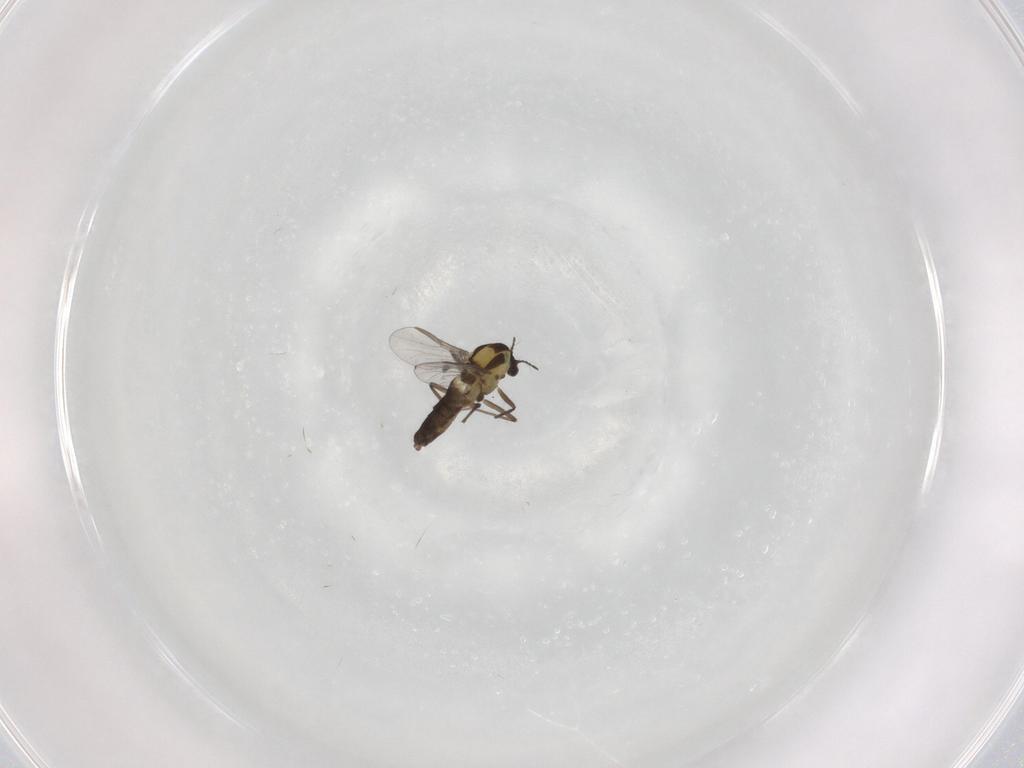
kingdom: Animalia
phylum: Arthropoda
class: Insecta
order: Diptera
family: Chironomidae
